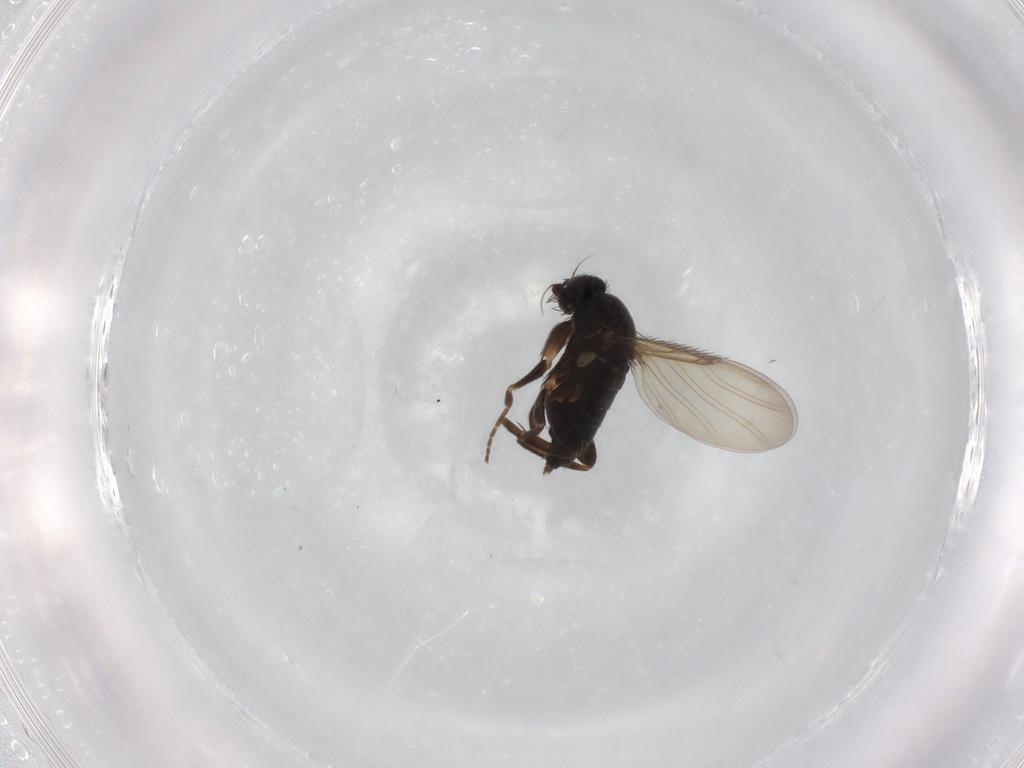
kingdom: Animalia
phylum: Arthropoda
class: Insecta
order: Diptera
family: Phoridae
